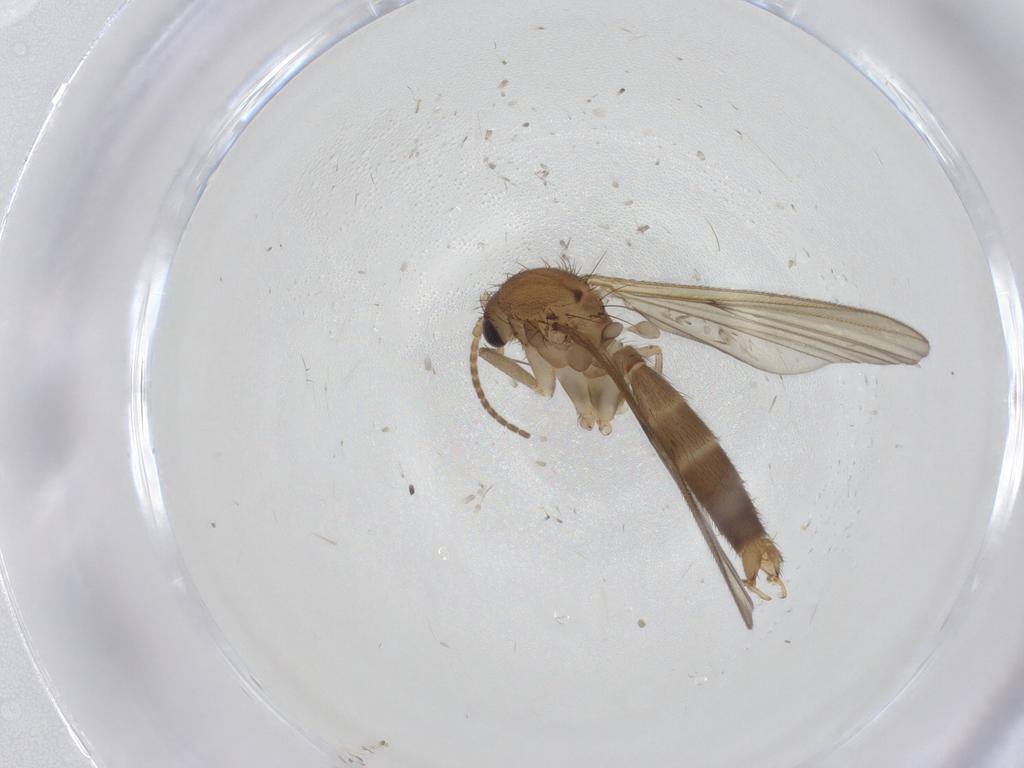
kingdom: Animalia
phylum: Arthropoda
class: Insecta
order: Diptera
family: Mycetophilidae
